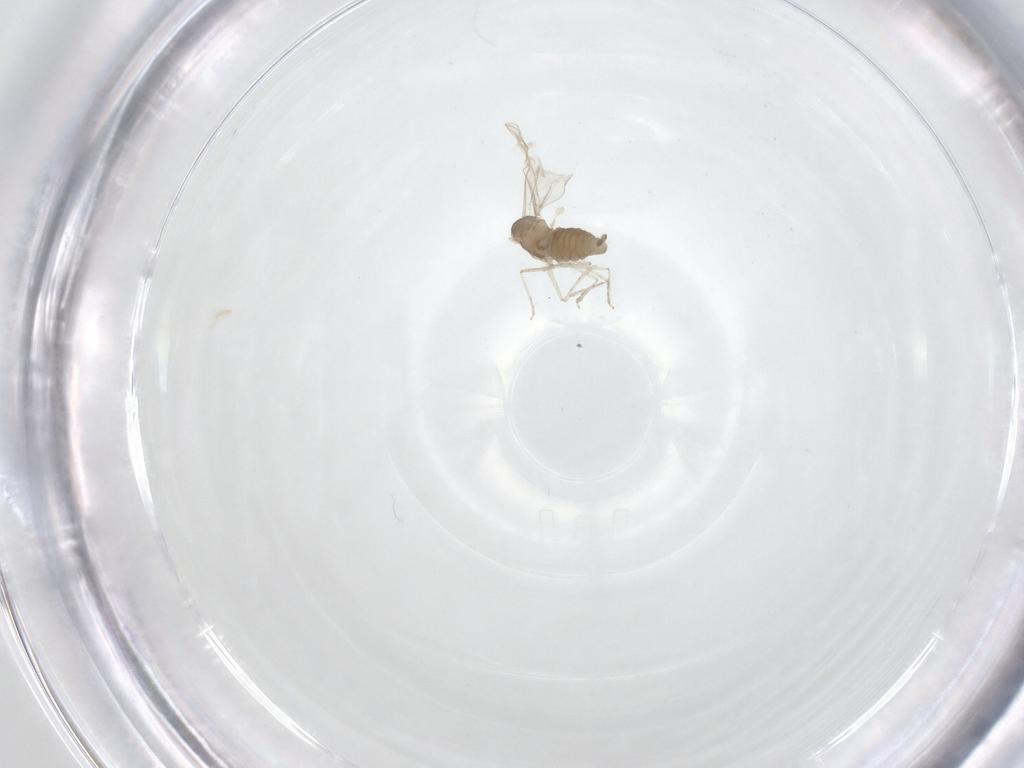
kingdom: Animalia
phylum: Arthropoda
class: Insecta
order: Diptera
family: Cecidomyiidae
